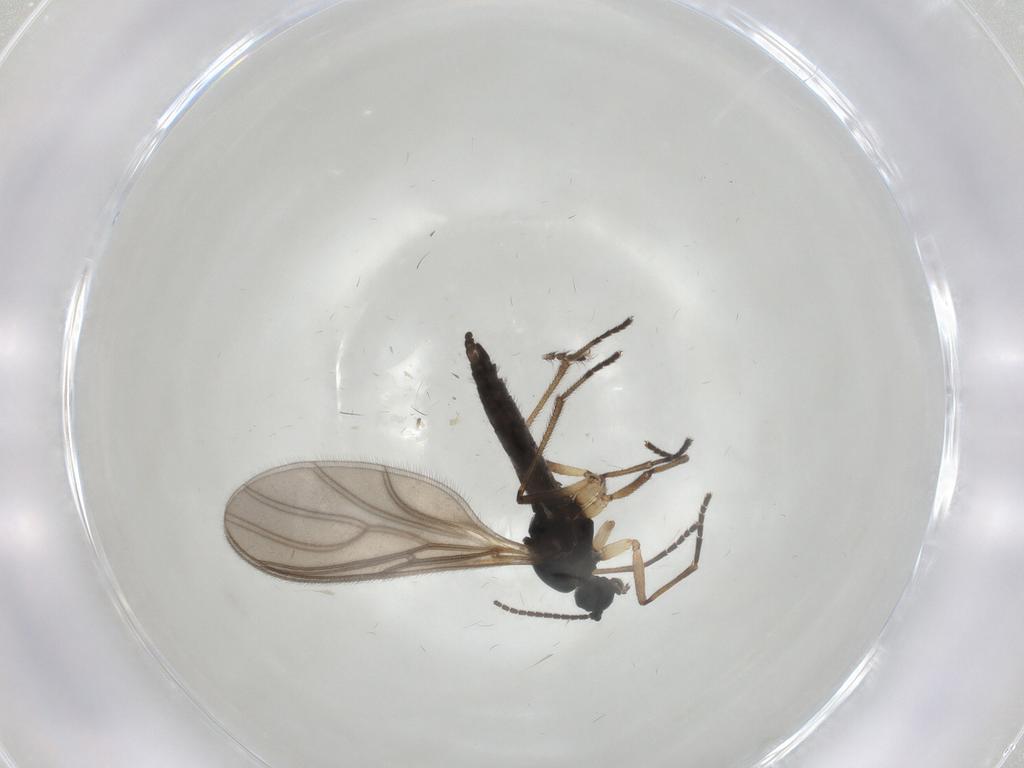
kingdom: Animalia
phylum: Arthropoda
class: Insecta
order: Diptera
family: Sciaridae
